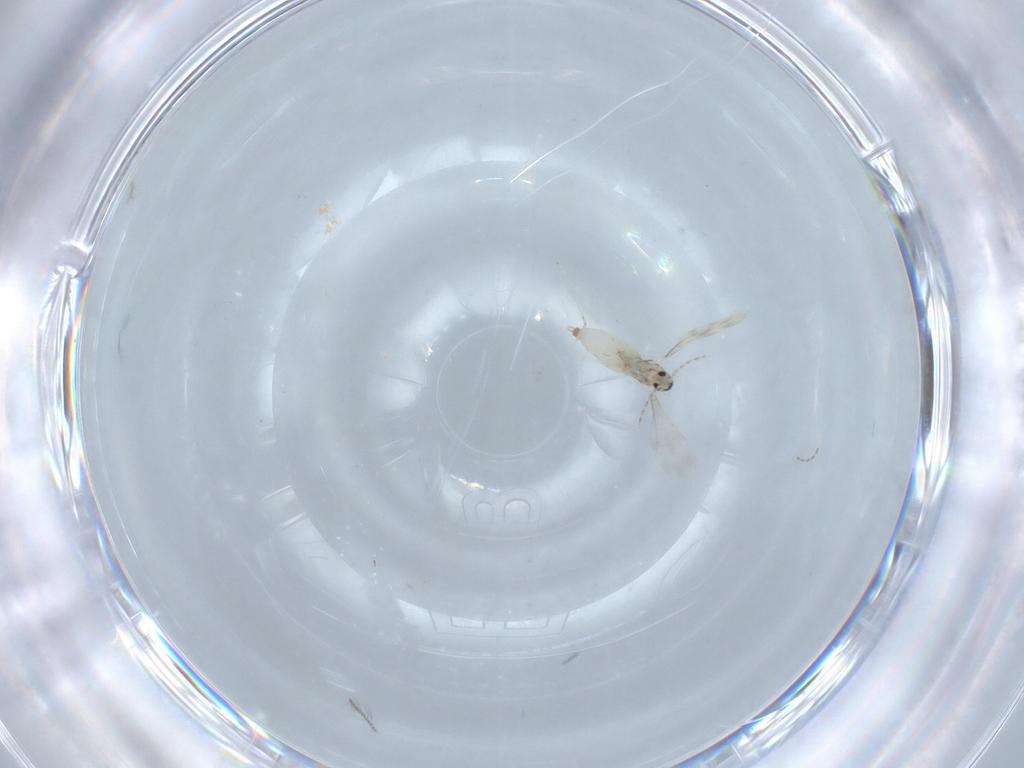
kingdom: Animalia
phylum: Arthropoda
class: Insecta
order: Diptera
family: Cecidomyiidae
